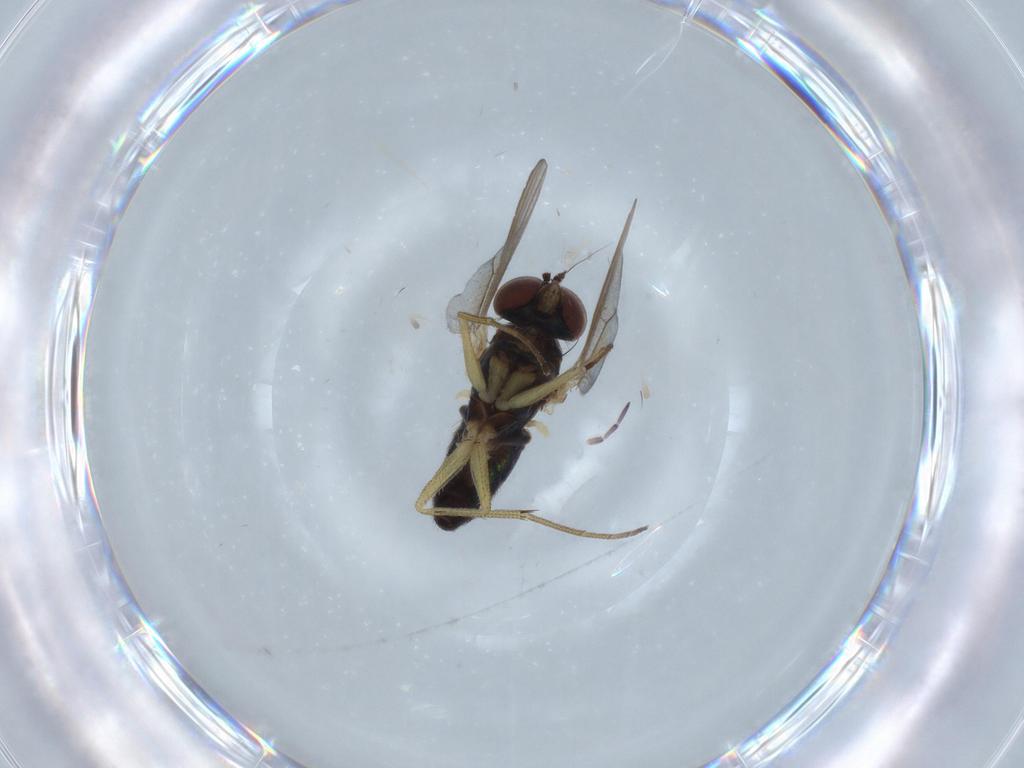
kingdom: Animalia
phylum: Arthropoda
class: Insecta
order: Diptera
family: Dolichopodidae
